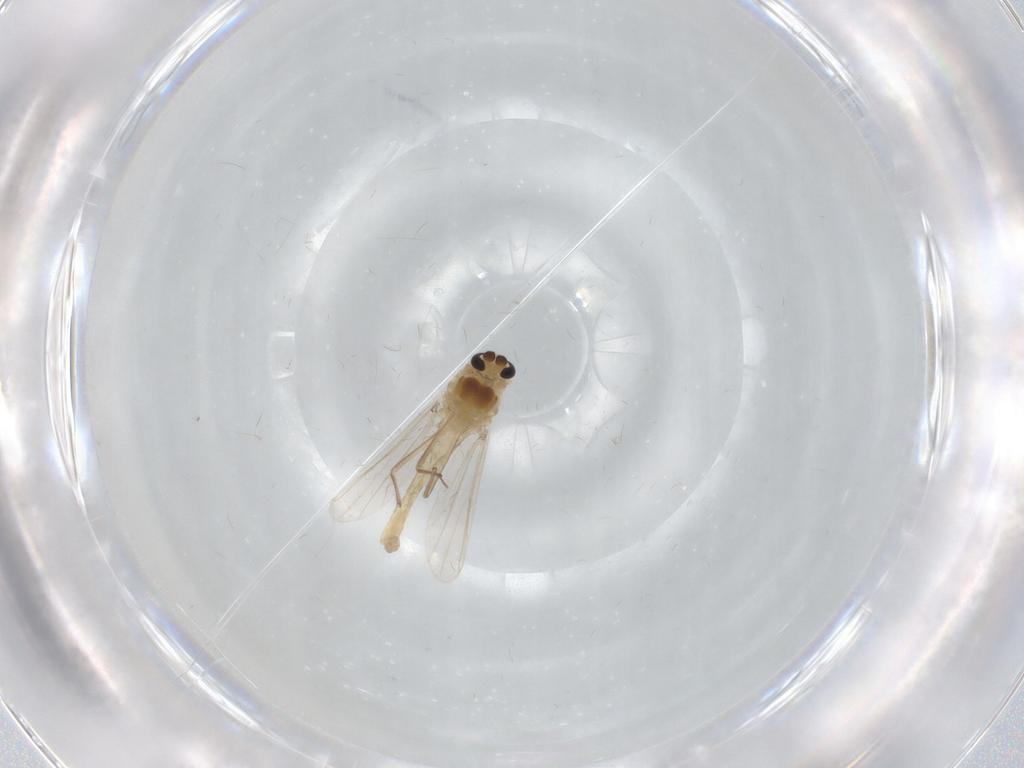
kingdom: Animalia
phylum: Arthropoda
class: Insecta
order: Diptera
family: Chironomidae
